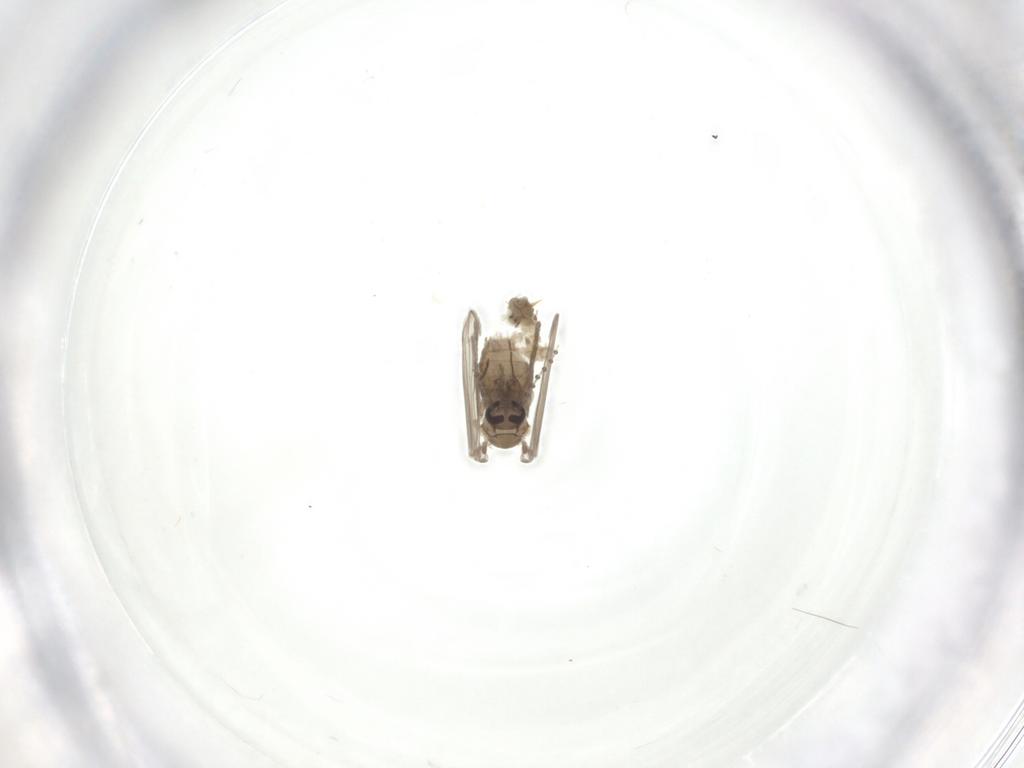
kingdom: Animalia
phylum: Arthropoda
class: Insecta
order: Diptera
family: Psychodidae
